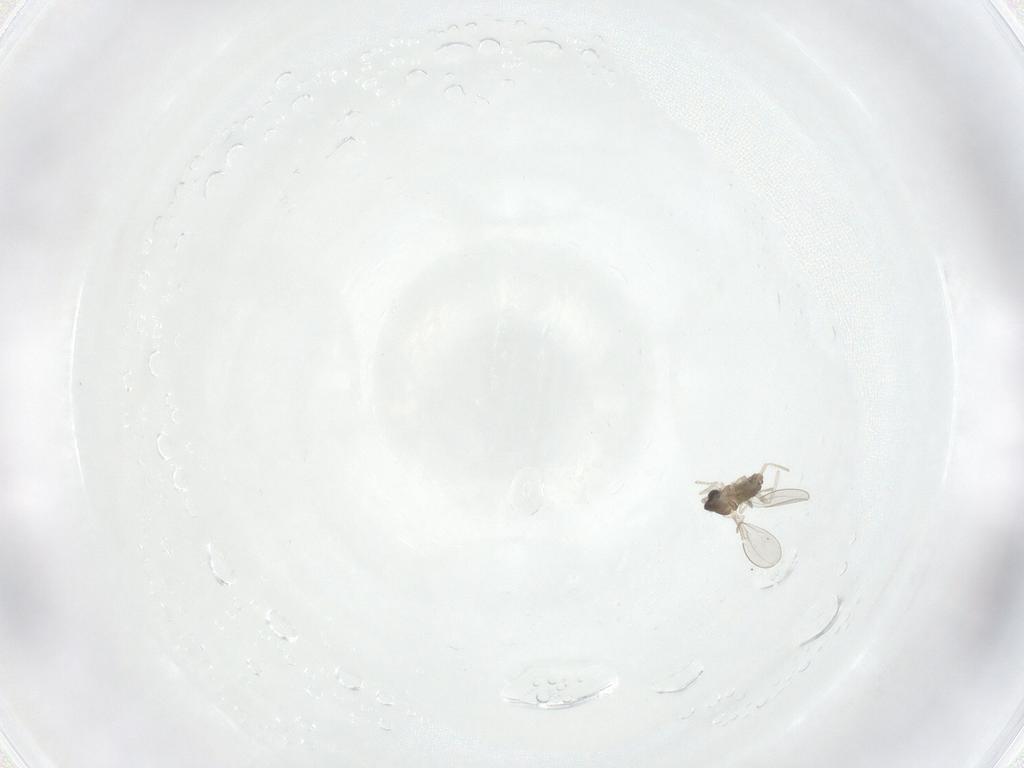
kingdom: Animalia
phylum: Arthropoda
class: Insecta
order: Diptera
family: Cecidomyiidae
